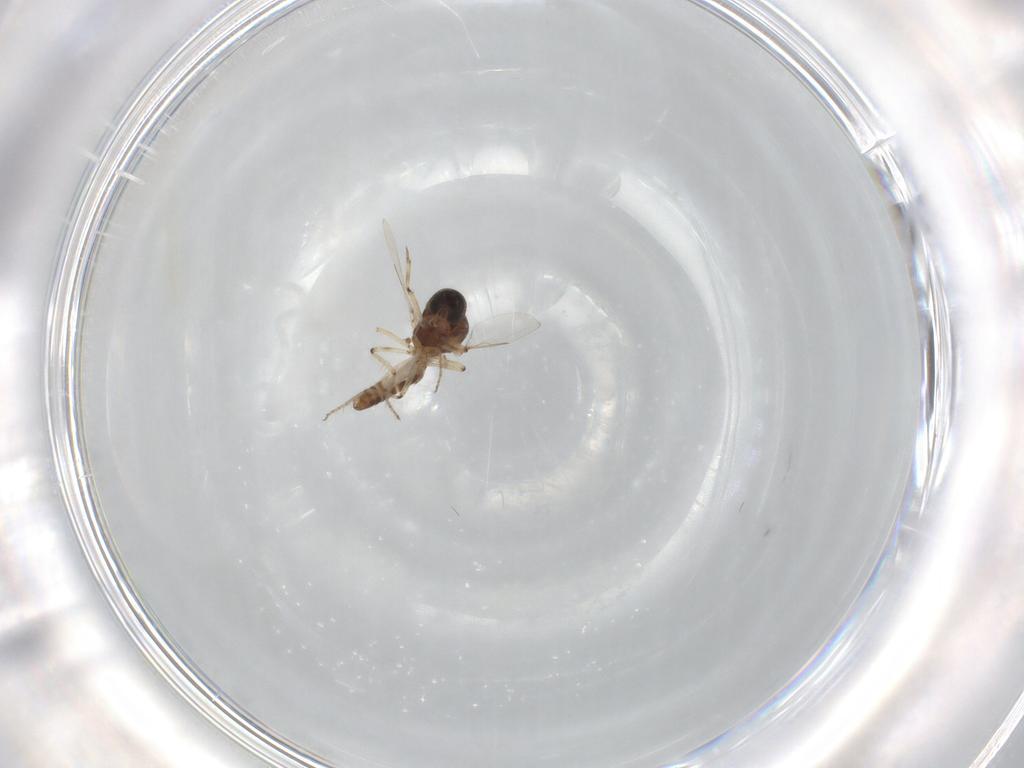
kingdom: Animalia
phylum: Arthropoda
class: Insecta
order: Diptera
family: Ceratopogonidae
